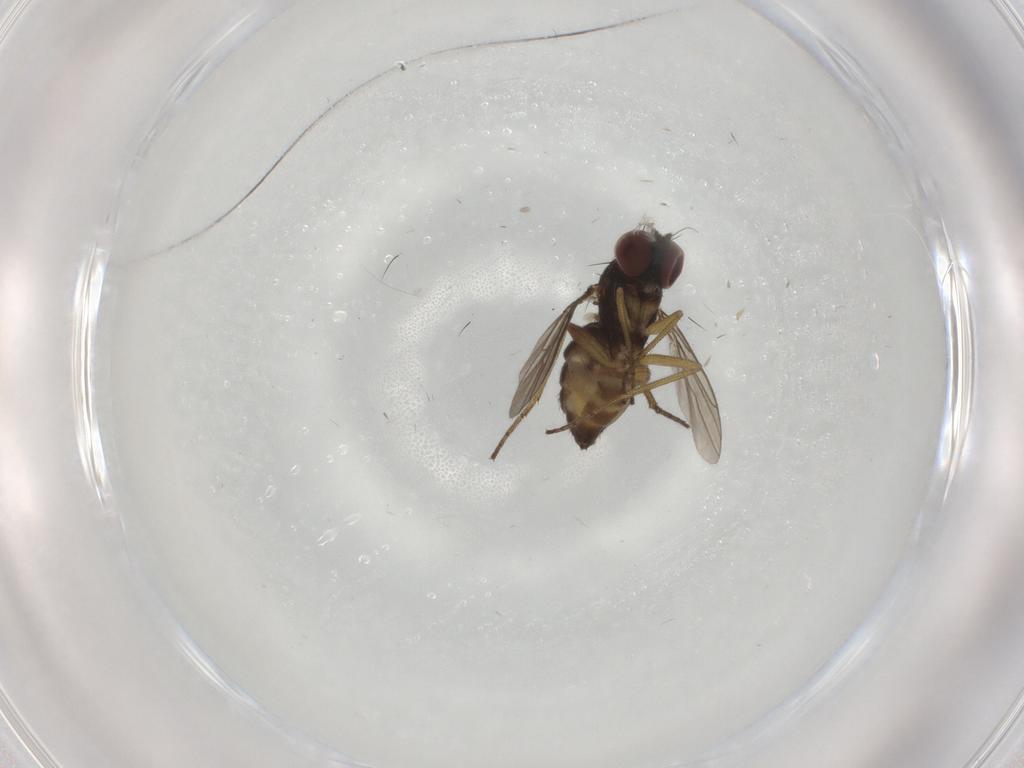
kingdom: Animalia
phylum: Arthropoda
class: Insecta
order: Diptera
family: Dolichopodidae
